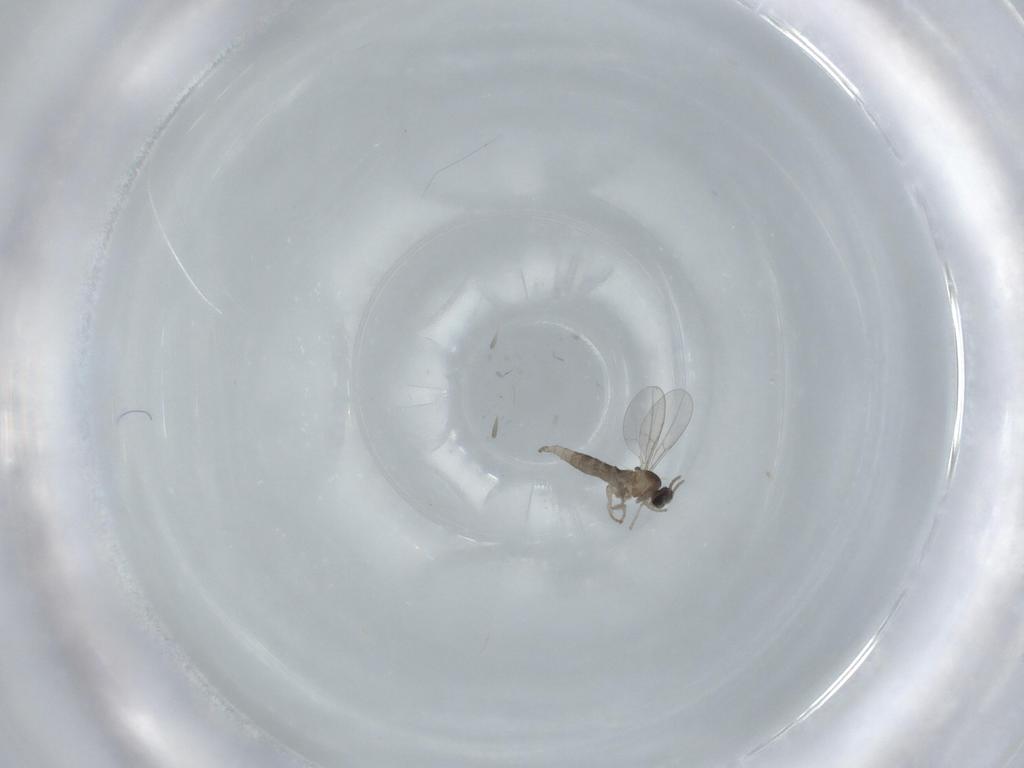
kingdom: Animalia
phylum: Arthropoda
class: Insecta
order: Diptera
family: Cecidomyiidae
